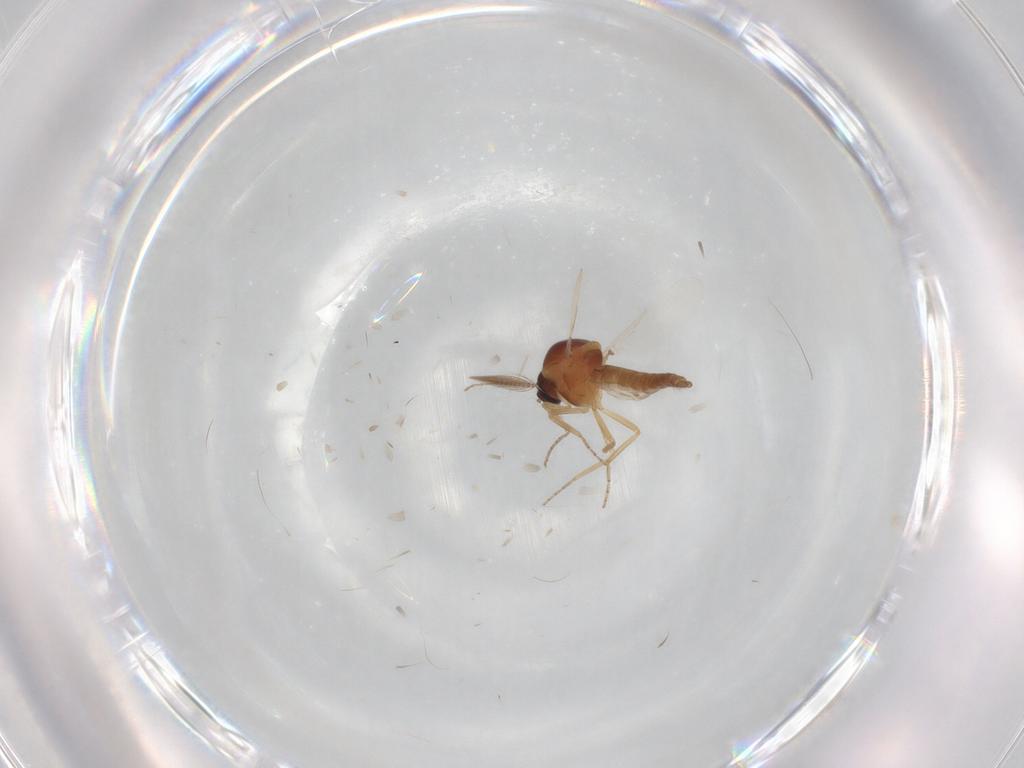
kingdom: Animalia
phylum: Arthropoda
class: Insecta
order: Diptera
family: Ceratopogonidae
